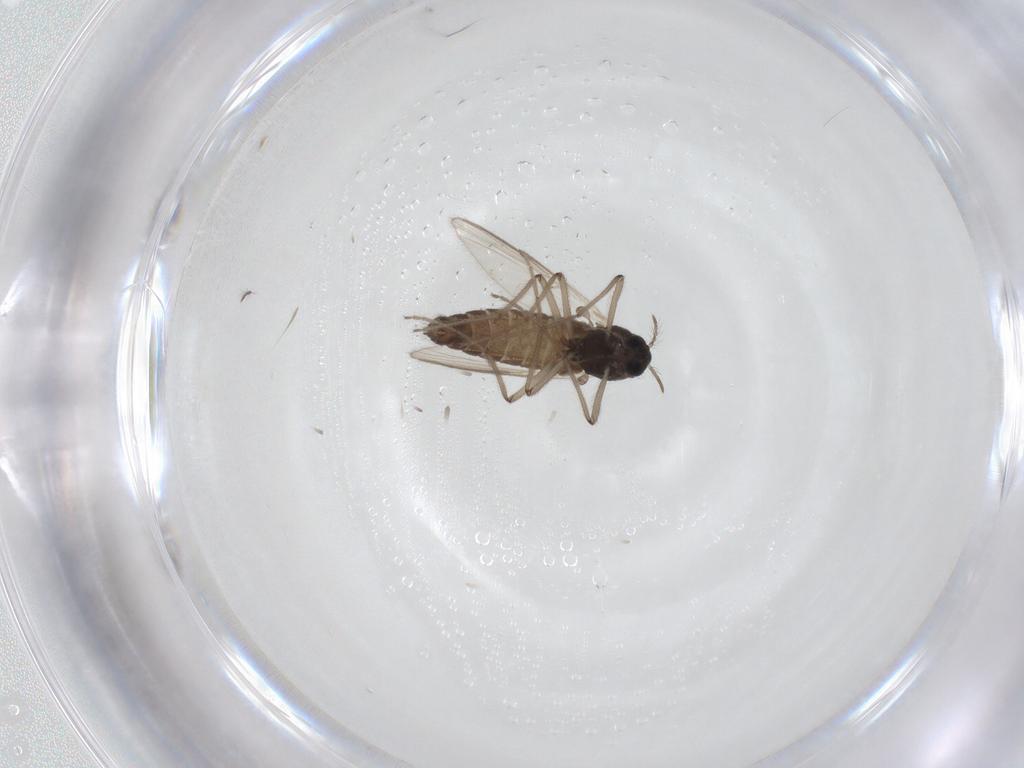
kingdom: Animalia
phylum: Arthropoda
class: Insecta
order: Diptera
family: Chironomidae
